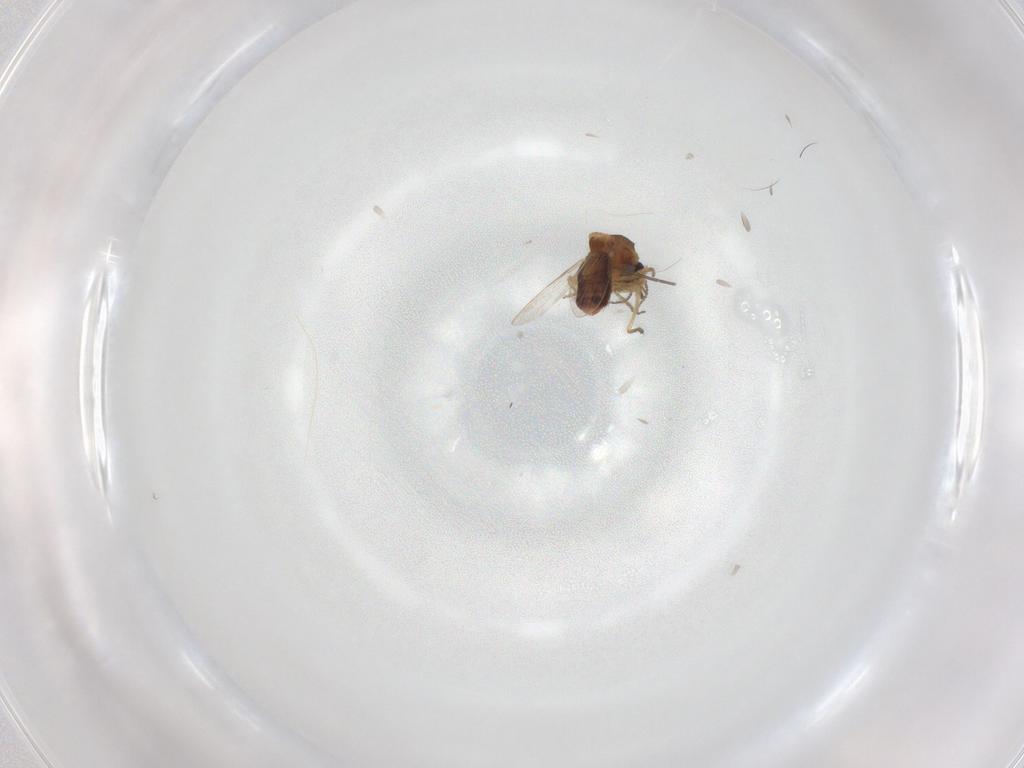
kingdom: Animalia
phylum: Arthropoda
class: Insecta
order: Diptera
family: Ceratopogonidae
